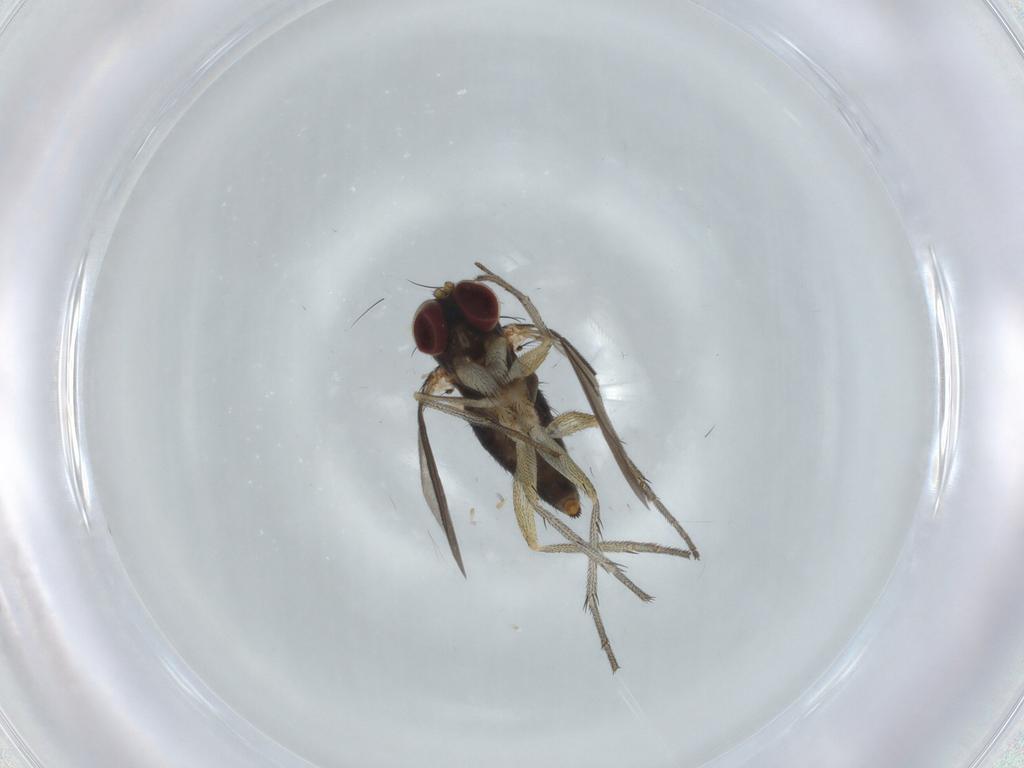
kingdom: Animalia
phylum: Arthropoda
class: Insecta
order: Diptera
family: Dolichopodidae
